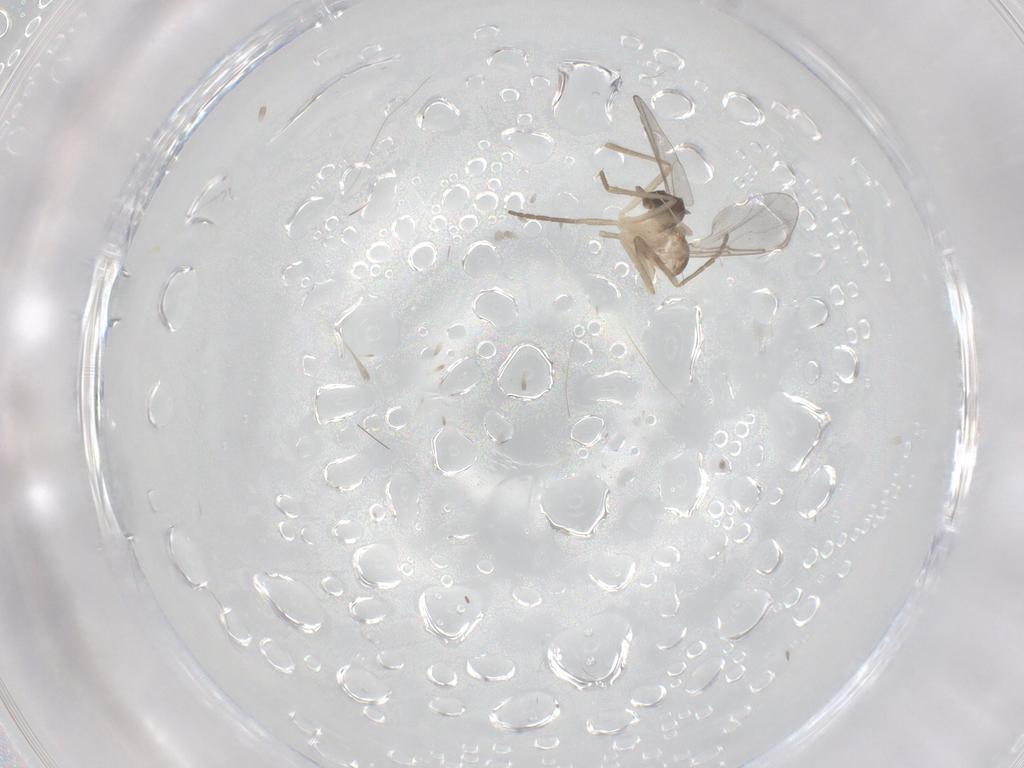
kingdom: Animalia
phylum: Arthropoda
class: Insecta
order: Diptera
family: Cecidomyiidae
